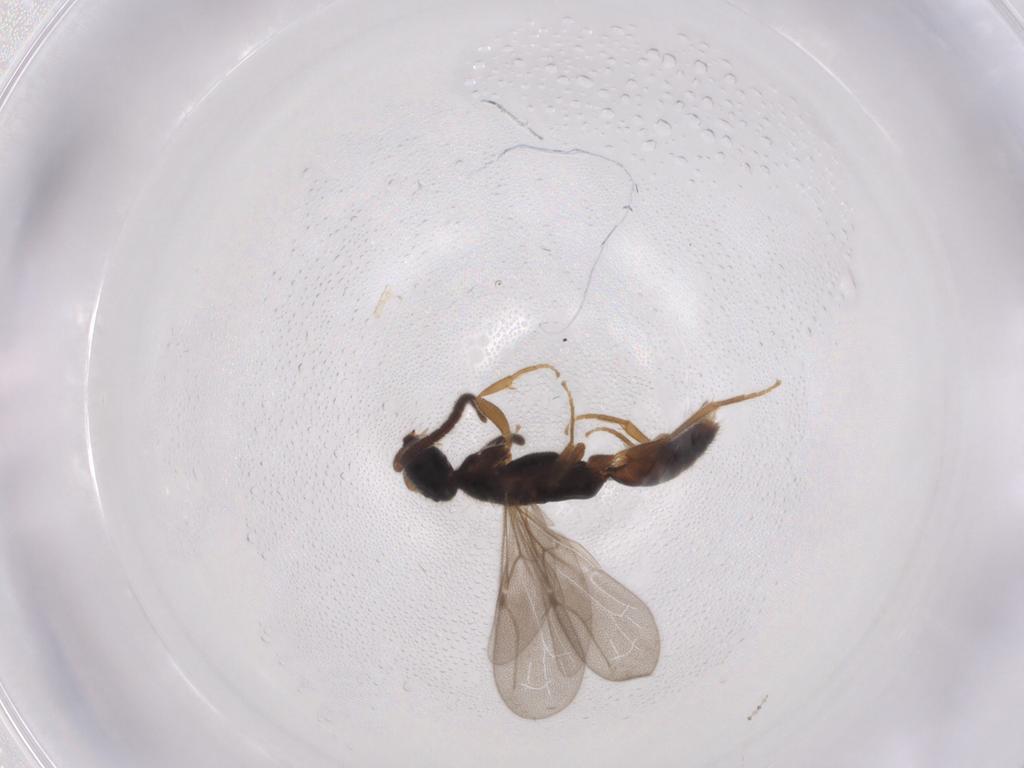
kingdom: Animalia
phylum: Arthropoda
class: Insecta
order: Hymenoptera
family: Bethylidae
